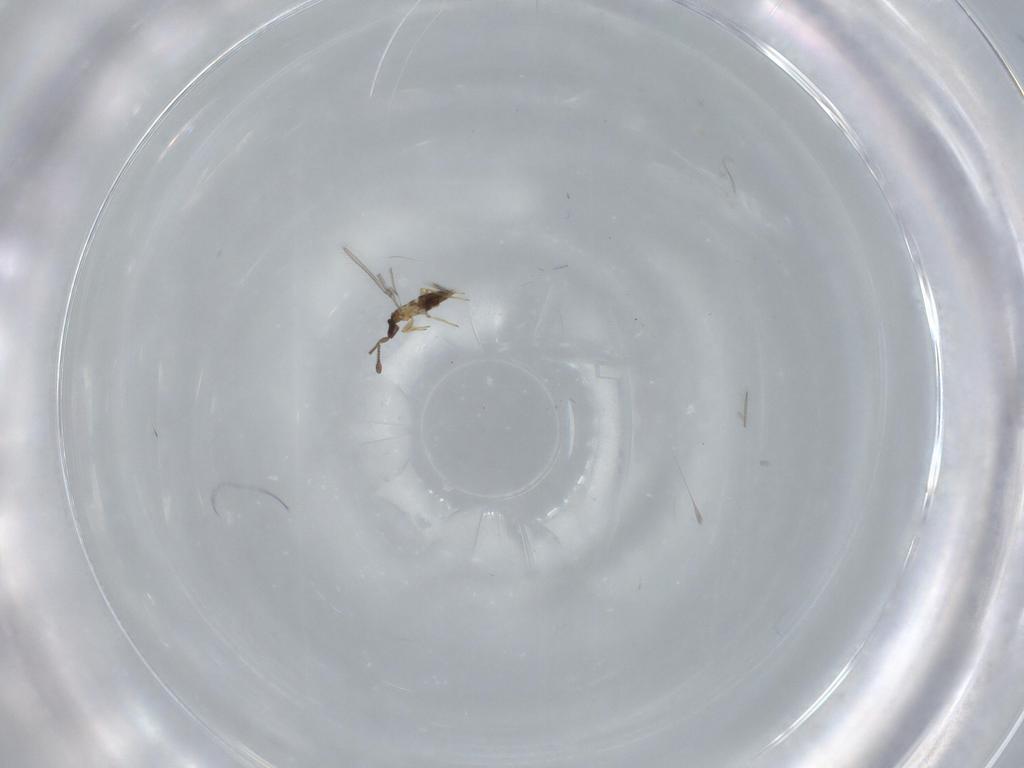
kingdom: Animalia
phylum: Arthropoda
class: Insecta
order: Hymenoptera
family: Mymaridae
